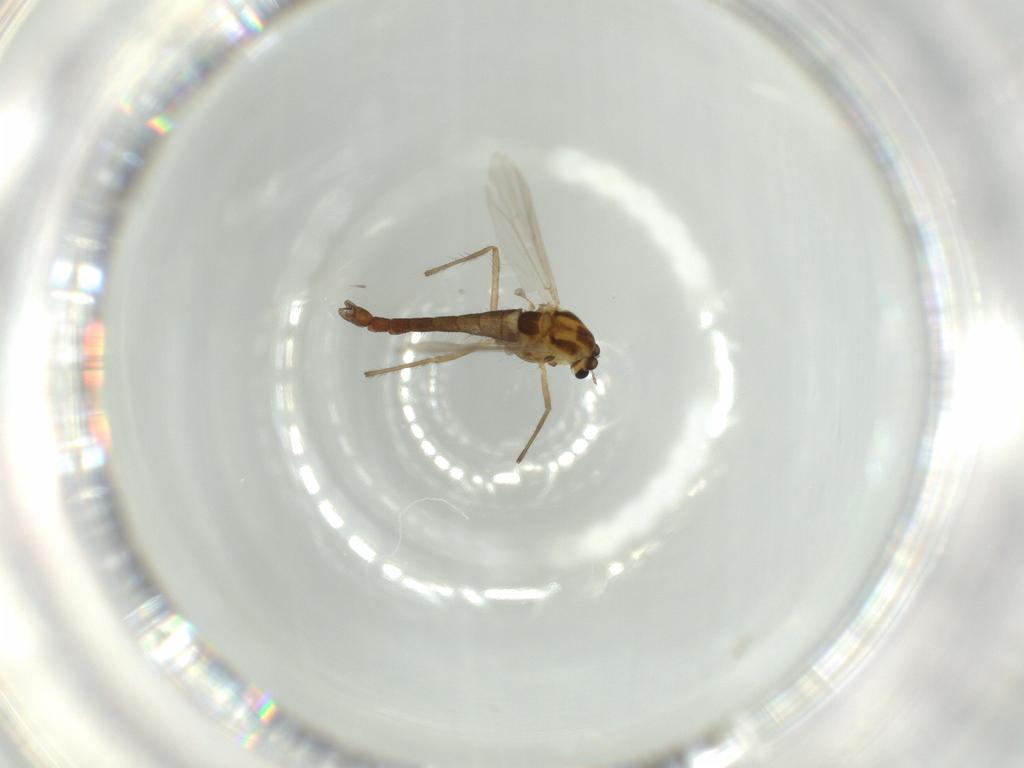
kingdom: Animalia
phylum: Arthropoda
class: Insecta
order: Diptera
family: Chironomidae
